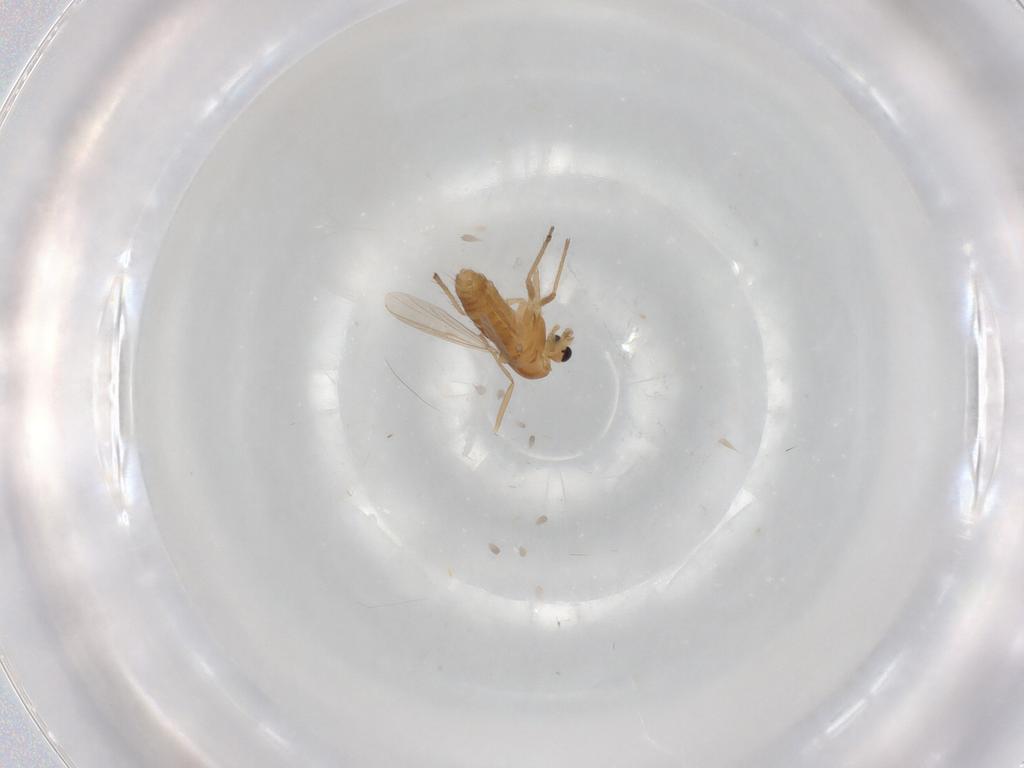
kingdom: Animalia
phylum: Arthropoda
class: Insecta
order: Diptera
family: Chironomidae
